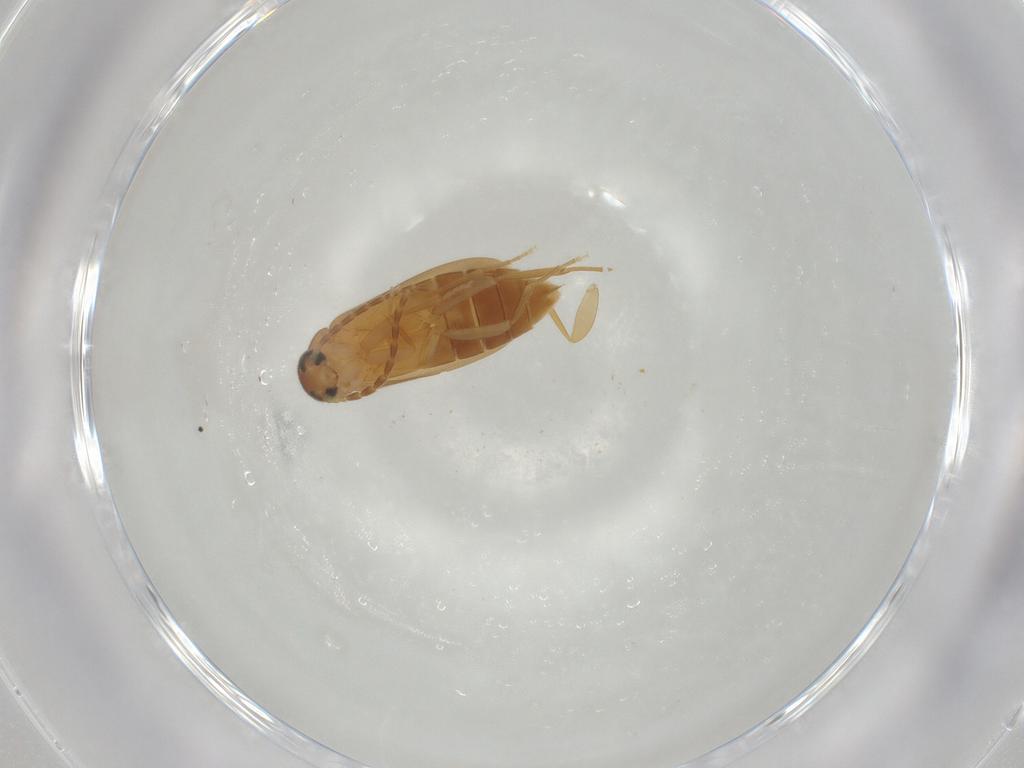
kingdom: Animalia
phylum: Arthropoda
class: Insecta
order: Coleoptera
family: Scraptiidae
